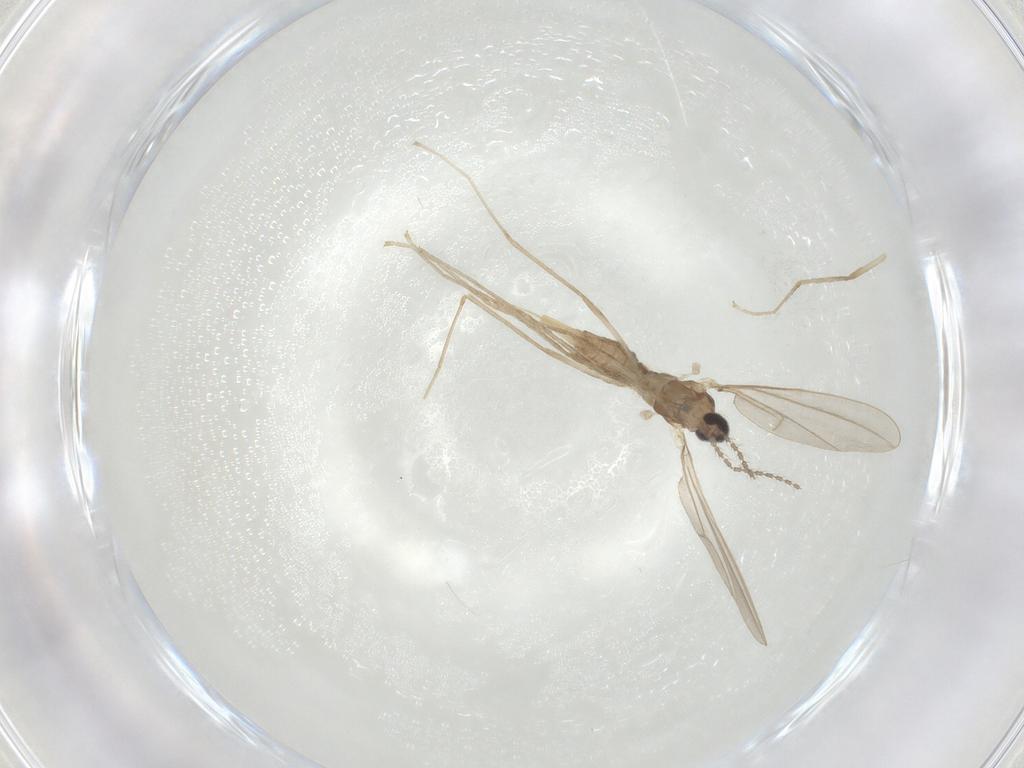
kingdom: Animalia
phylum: Arthropoda
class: Insecta
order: Diptera
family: Cecidomyiidae
